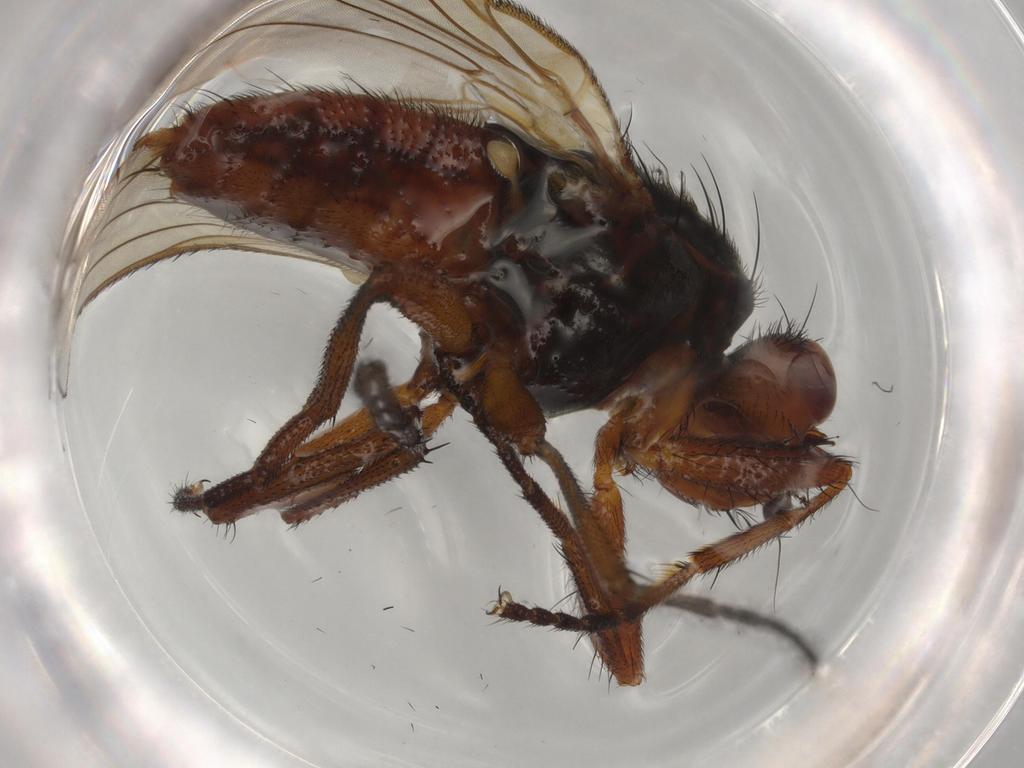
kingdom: Animalia
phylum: Arthropoda
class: Insecta
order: Diptera
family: Heleomyzidae
